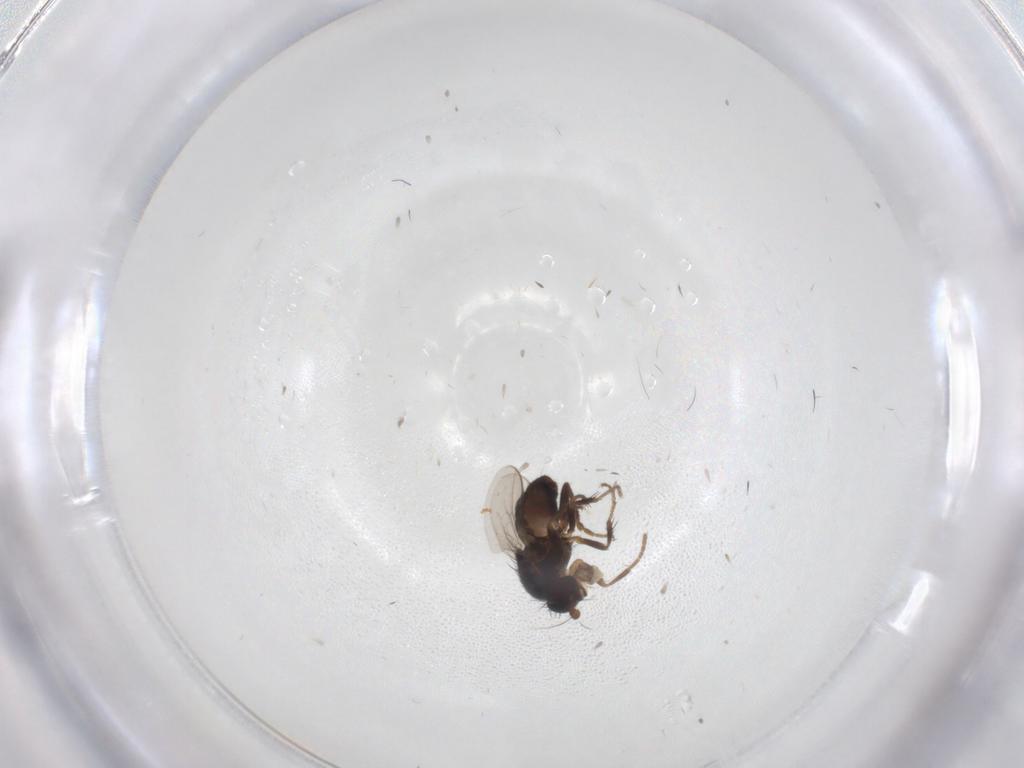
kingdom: Animalia
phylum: Arthropoda
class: Insecta
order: Diptera
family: Sphaeroceridae
